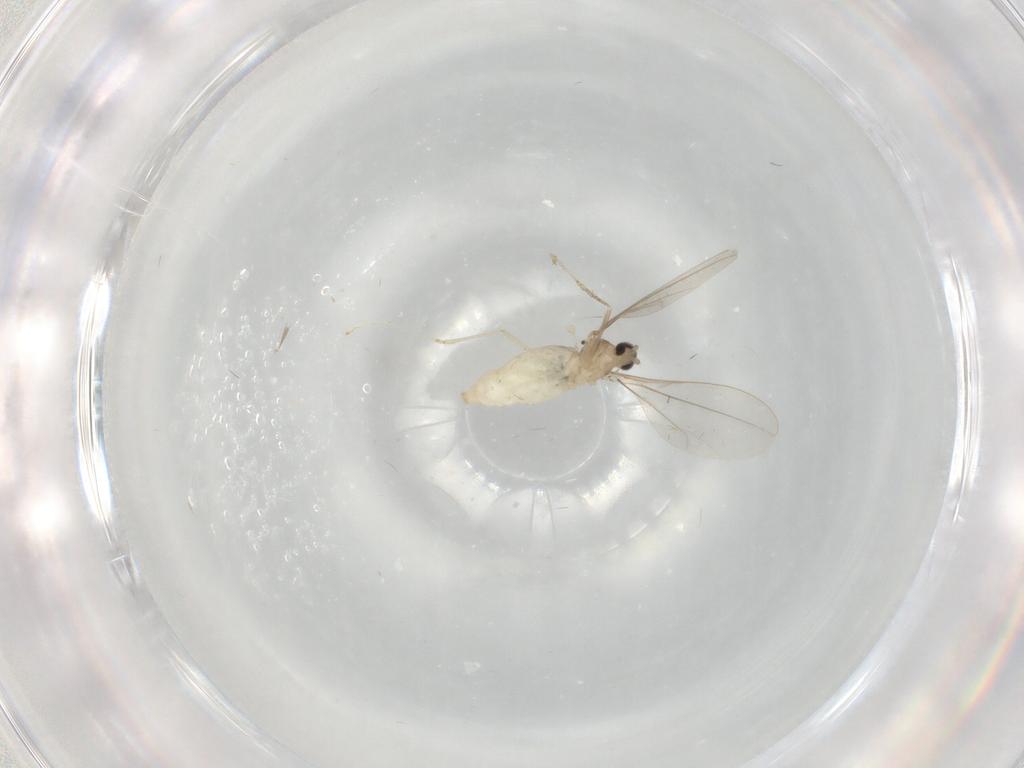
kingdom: Animalia
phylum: Arthropoda
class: Insecta
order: Diptera
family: Cecidomyiidae
